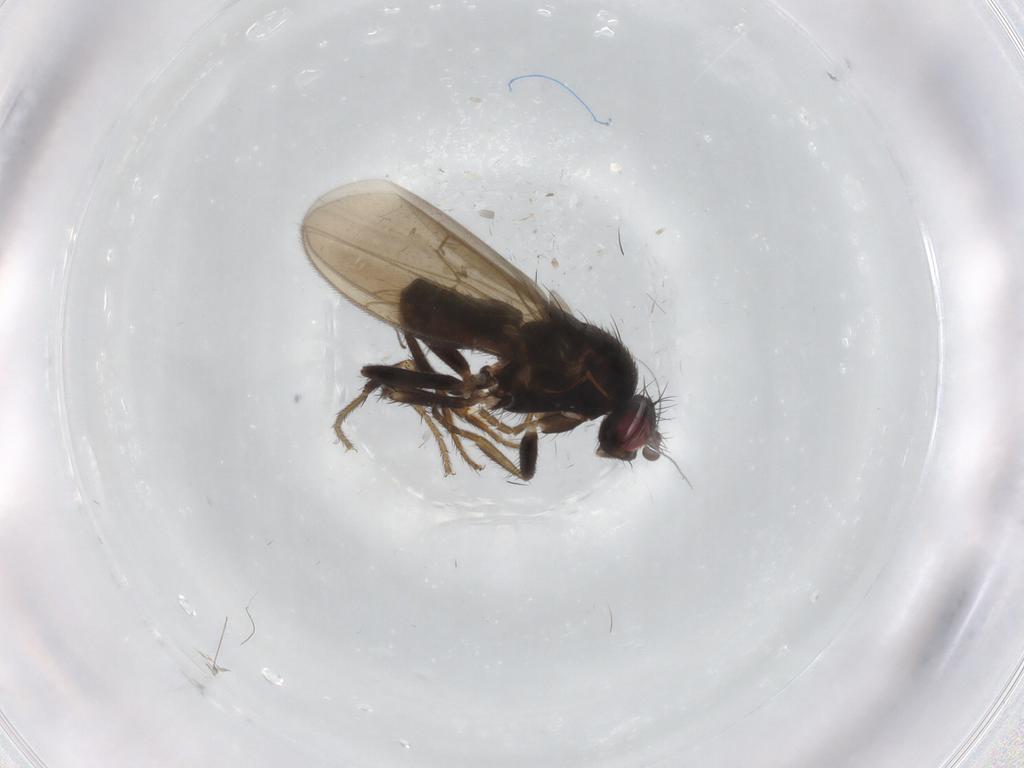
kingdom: Animalia
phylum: Arthropoda
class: Insecta
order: Diptera
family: Sphaeroceridae
